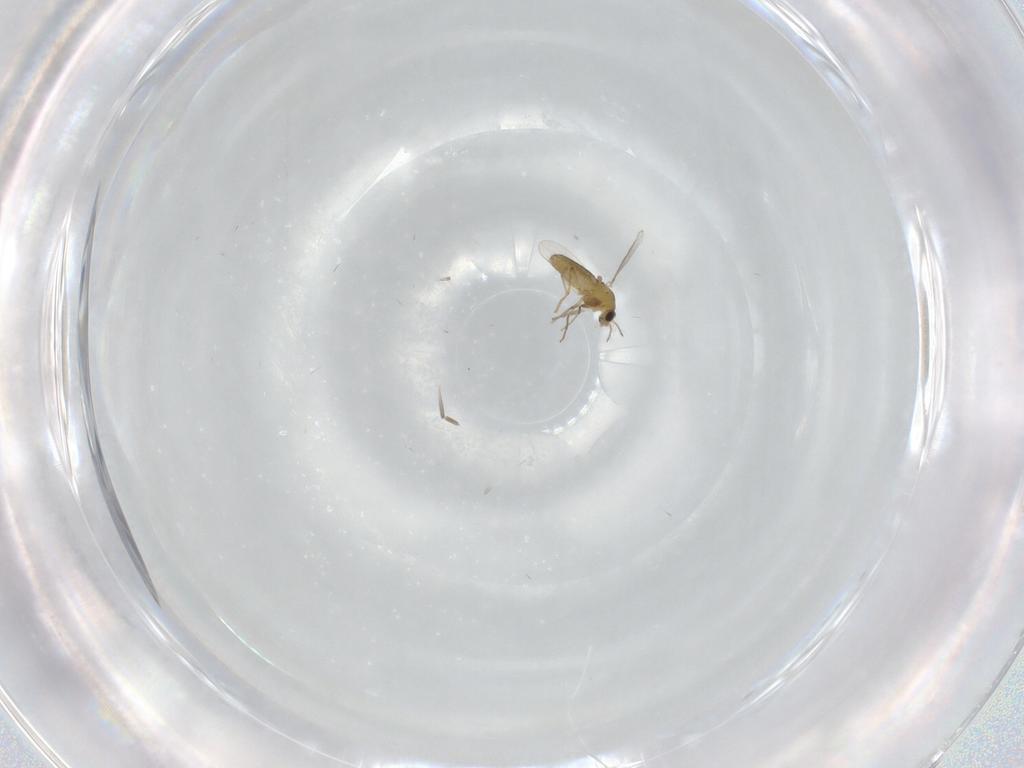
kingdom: Animalia
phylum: Arthropoda
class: Insecta
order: Diptera
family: Chironomidae
